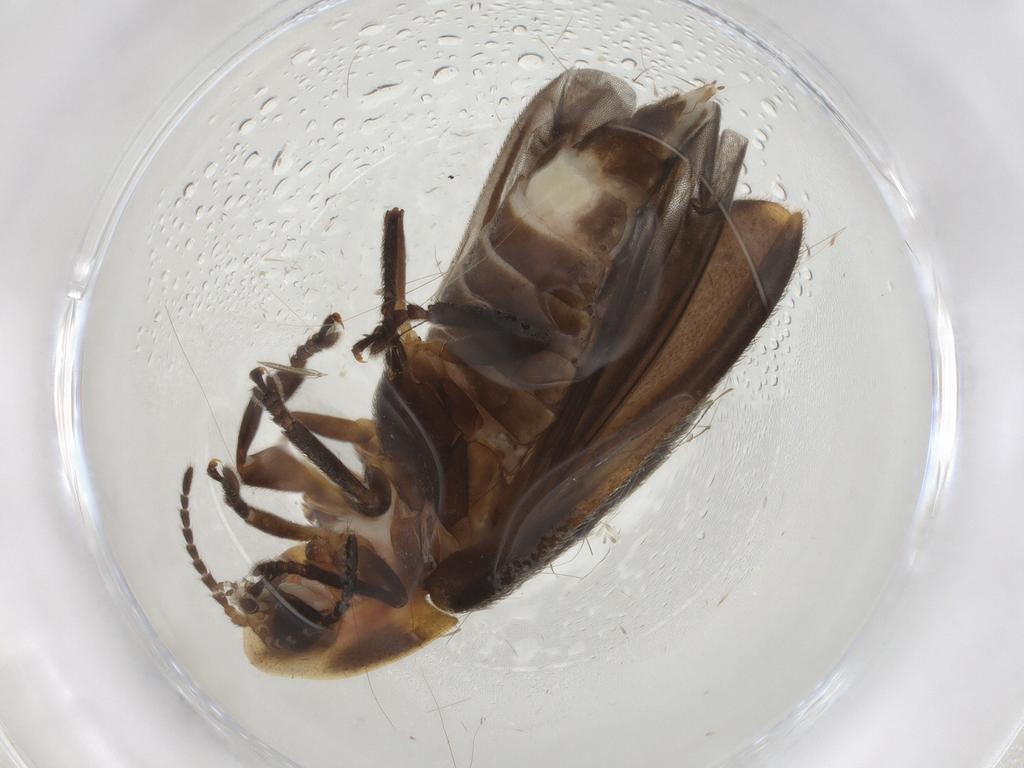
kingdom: Animalia
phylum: Arthropoda
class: Insecta
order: Coleoptera
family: Lampyridae
